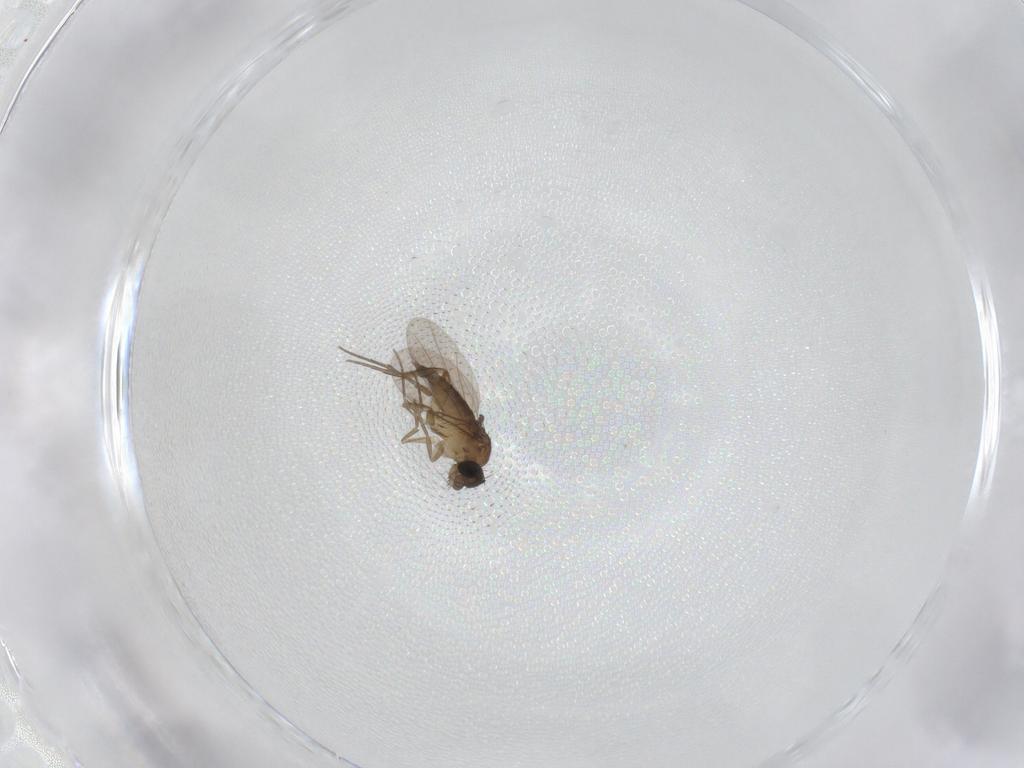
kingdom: Animalia
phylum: Arthropoda
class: Insecta
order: Diptera
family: Phoridae
